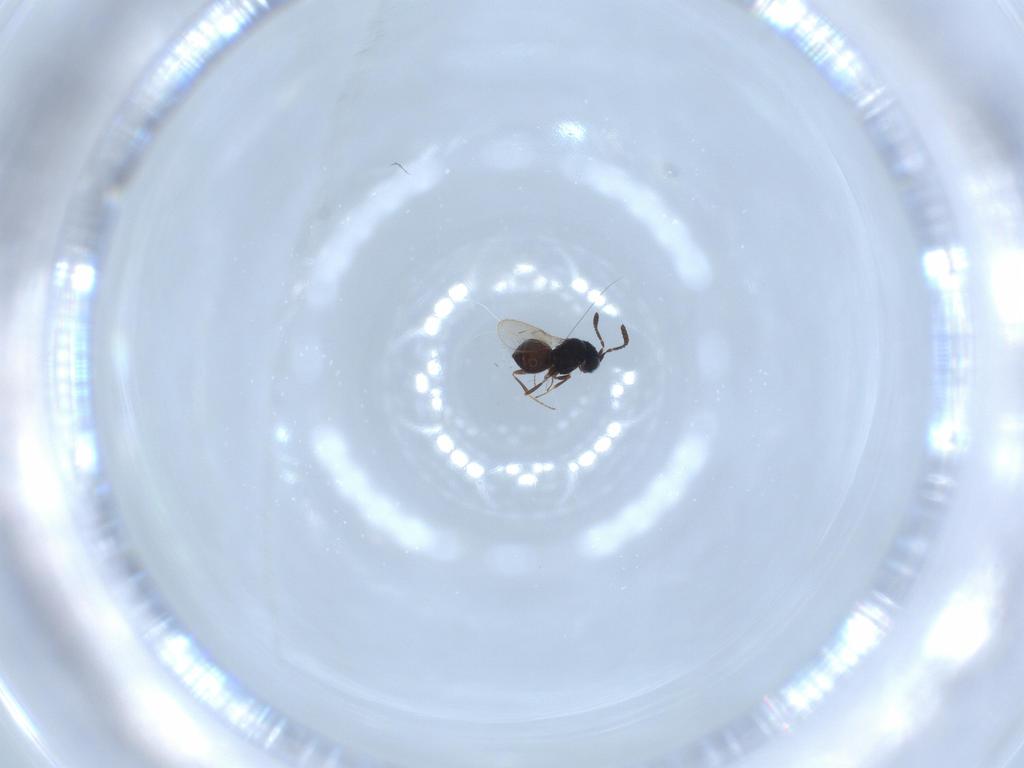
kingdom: Animalia
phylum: Arthropoda
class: Insecta
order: Hymenoptera
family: Scelionidae
